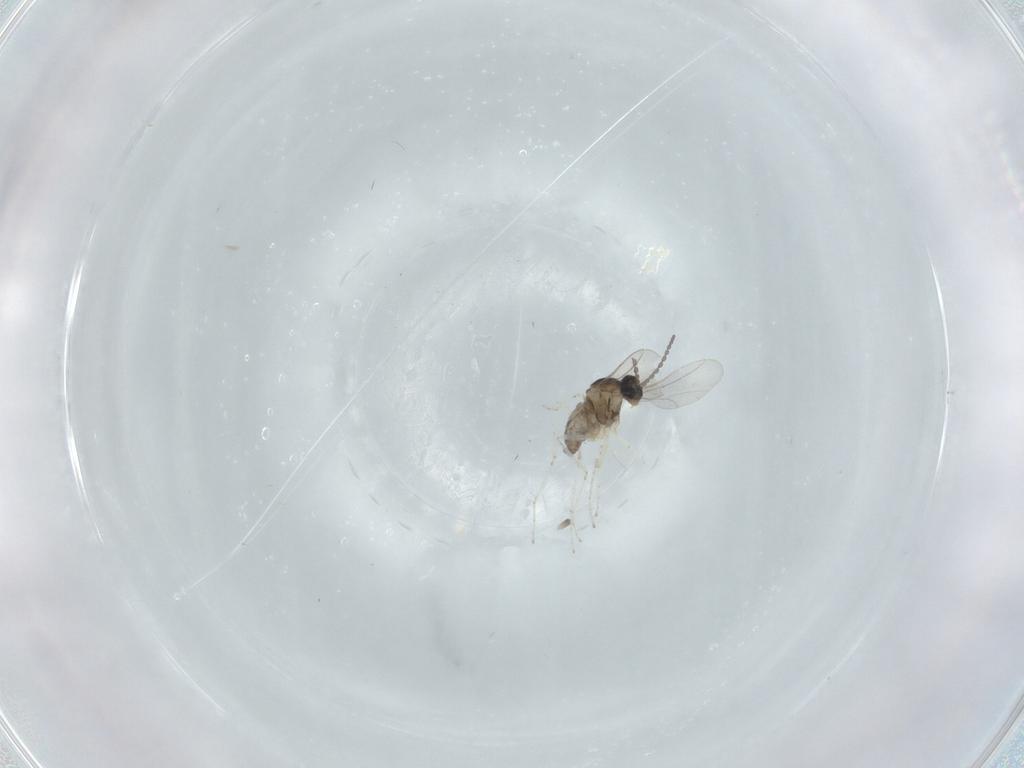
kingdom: Animalia
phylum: Arthropoda
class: Insecta
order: Diptera
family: Cecidomyiidae
